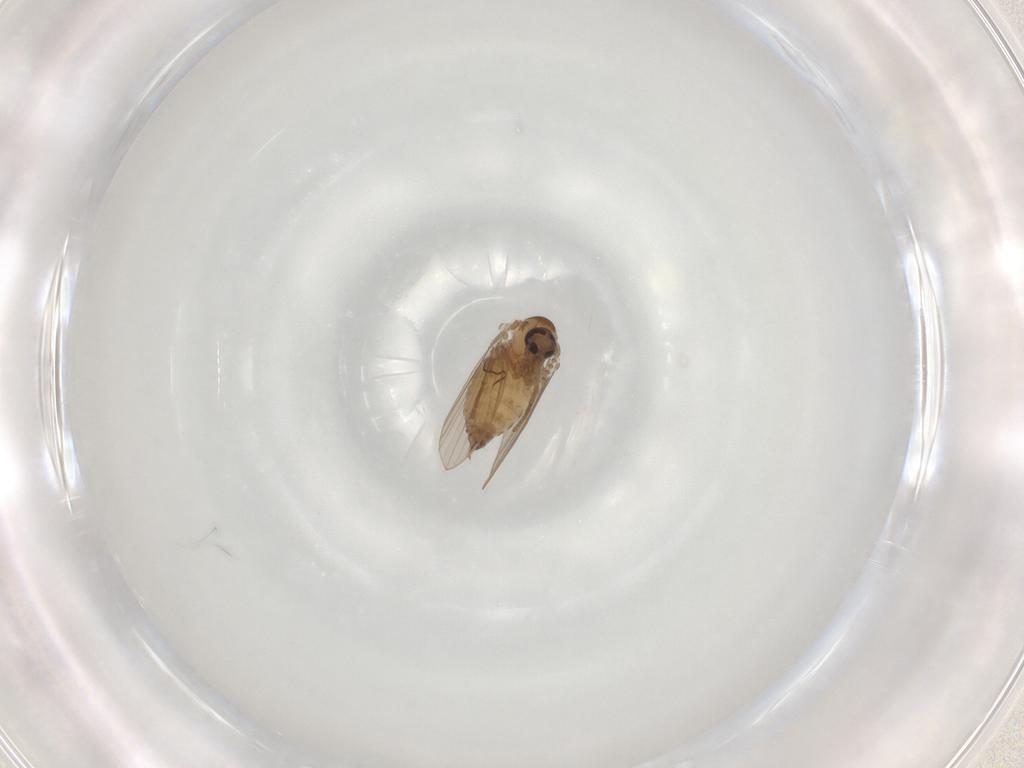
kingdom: Animalia
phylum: Arthropoda
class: Insecta
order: Diptera
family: Psychodidae
